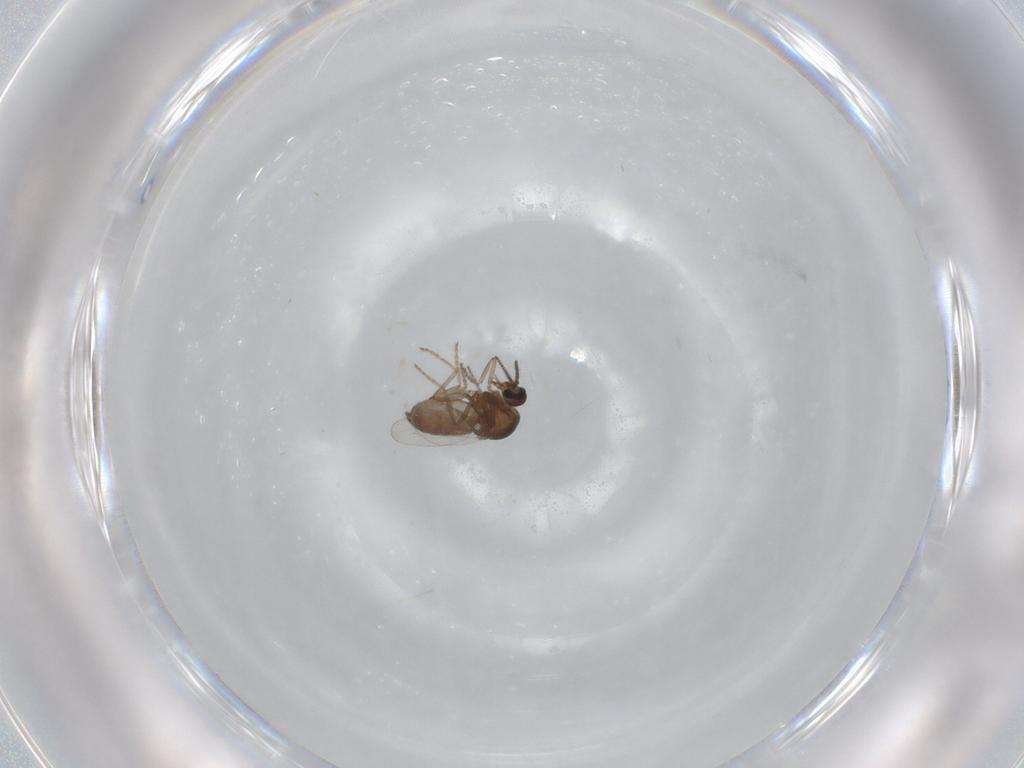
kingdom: Animalia
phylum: Arthropoda
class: Insecta
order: Diptera
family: Ceratopogonidae
